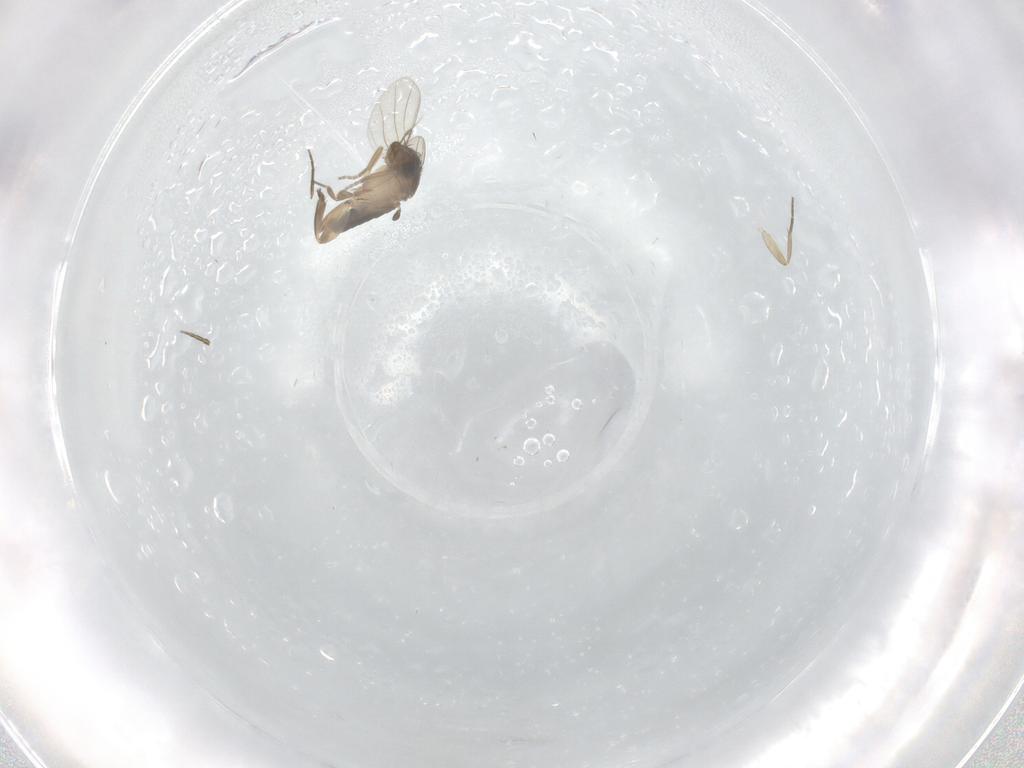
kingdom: Animalia
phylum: Arthropoda
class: Insecta
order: Diptera
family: Phoridae
